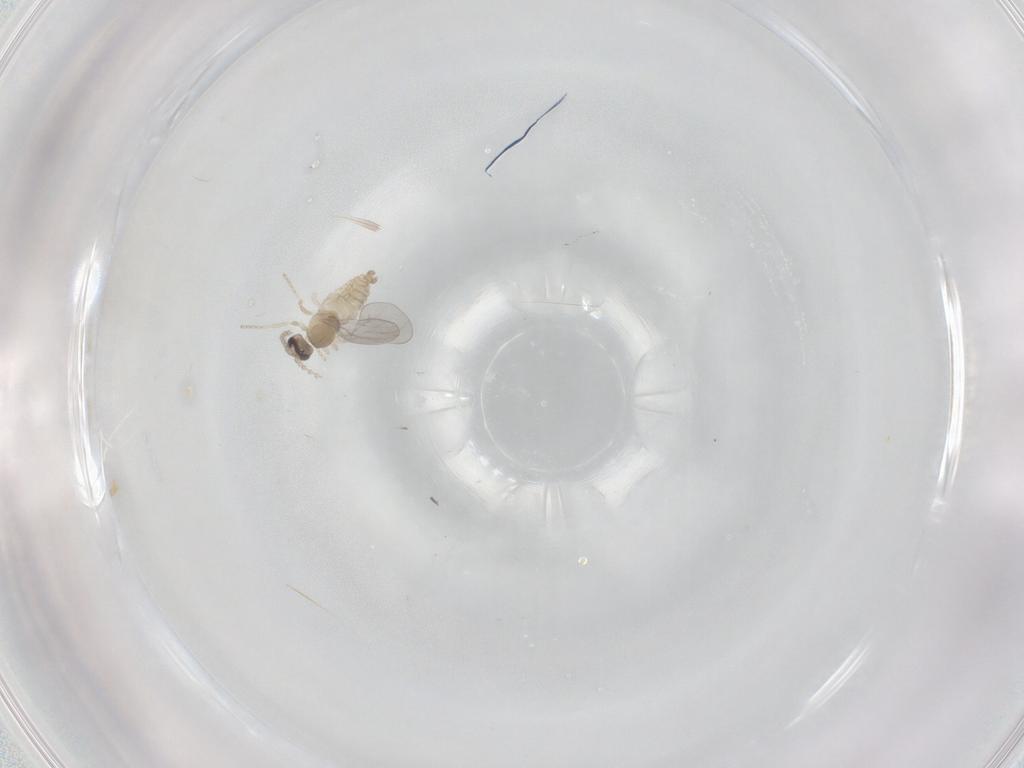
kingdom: Animalia
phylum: Arthropoda
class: Insecta
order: Diptera
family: Cecidomyiidae
